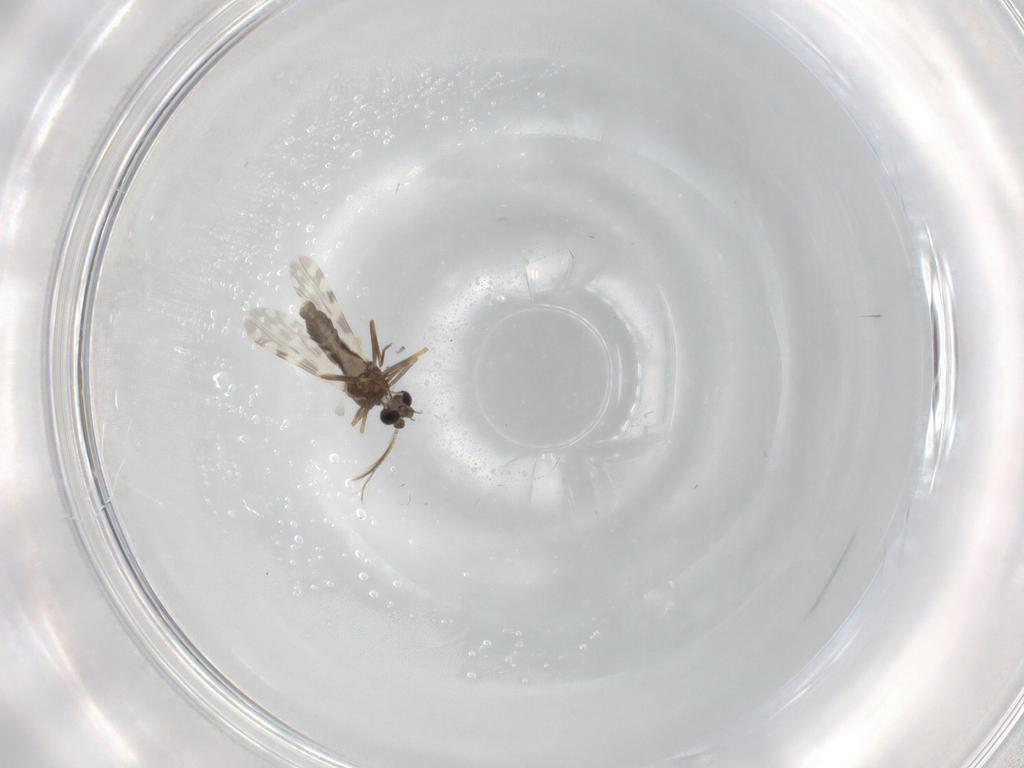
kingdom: Animalia
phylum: Arthropoda
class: Insecta
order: Diptera
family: Ceratopogonidae
